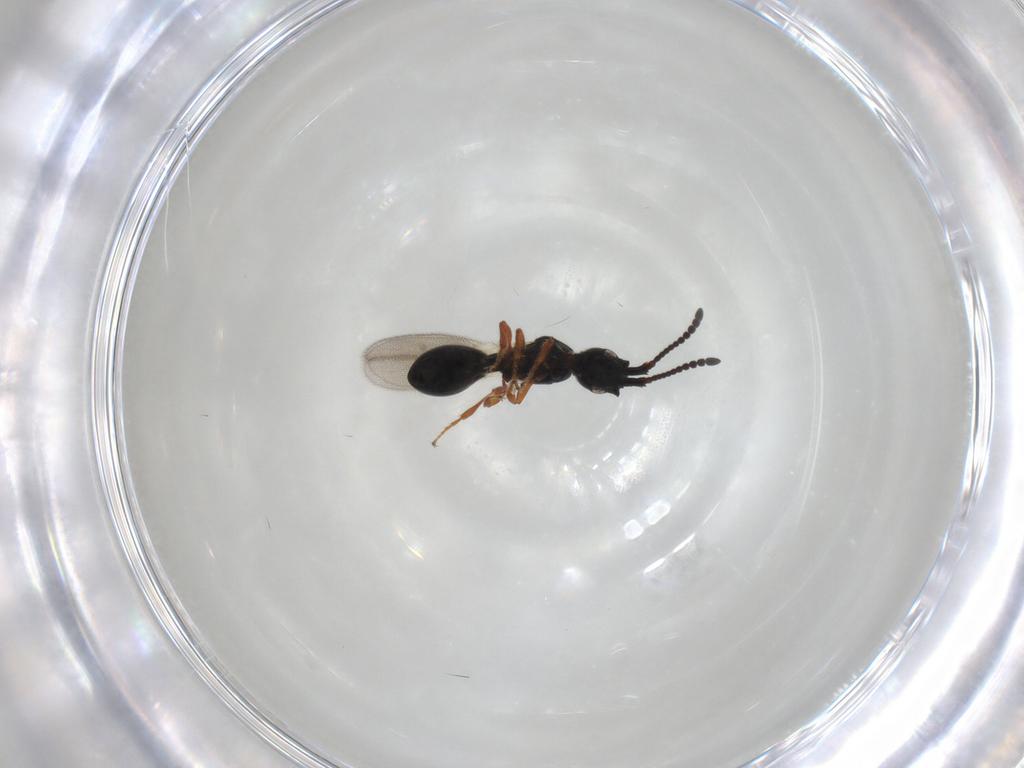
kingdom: Animalia
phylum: Arthropoda
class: Insecta
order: Hymenoptera
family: Diapriidae
